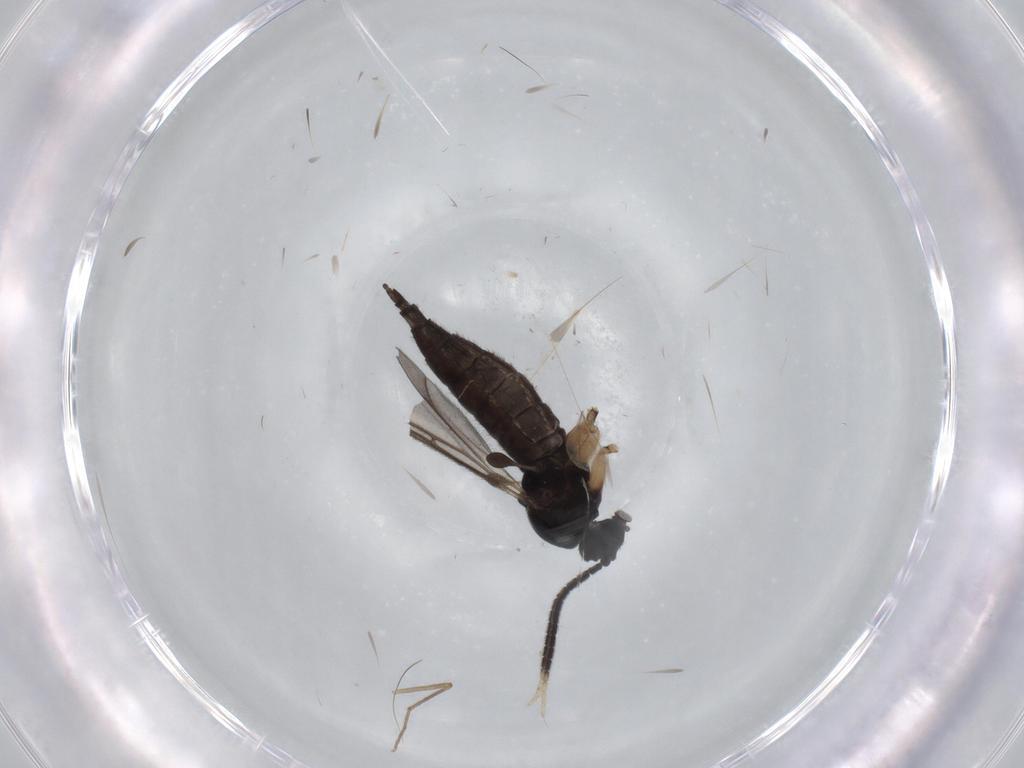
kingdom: Animalia
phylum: Arthropoda
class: Insecta
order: Diptera
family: Sciaridae
